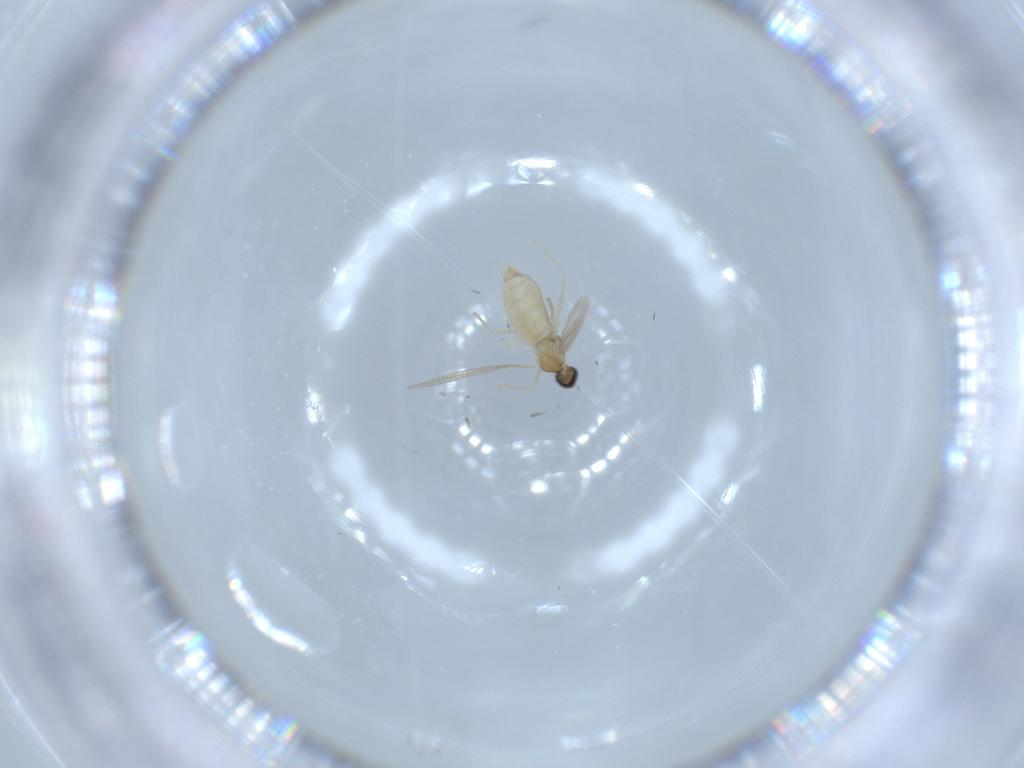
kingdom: Animalia
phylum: Arthropoda
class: Insecta
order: Diptera
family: Cecidomyiidae
